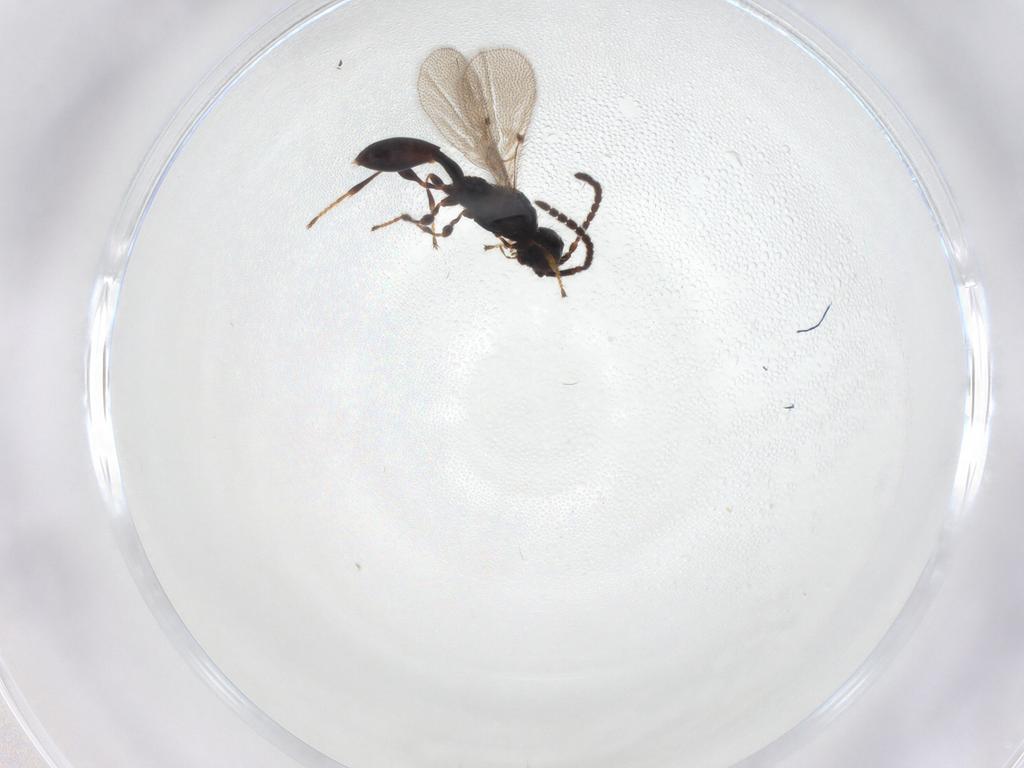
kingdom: Animalia
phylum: Arthropoda
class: Insecta
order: Hymenoptera
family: Diapriidae
